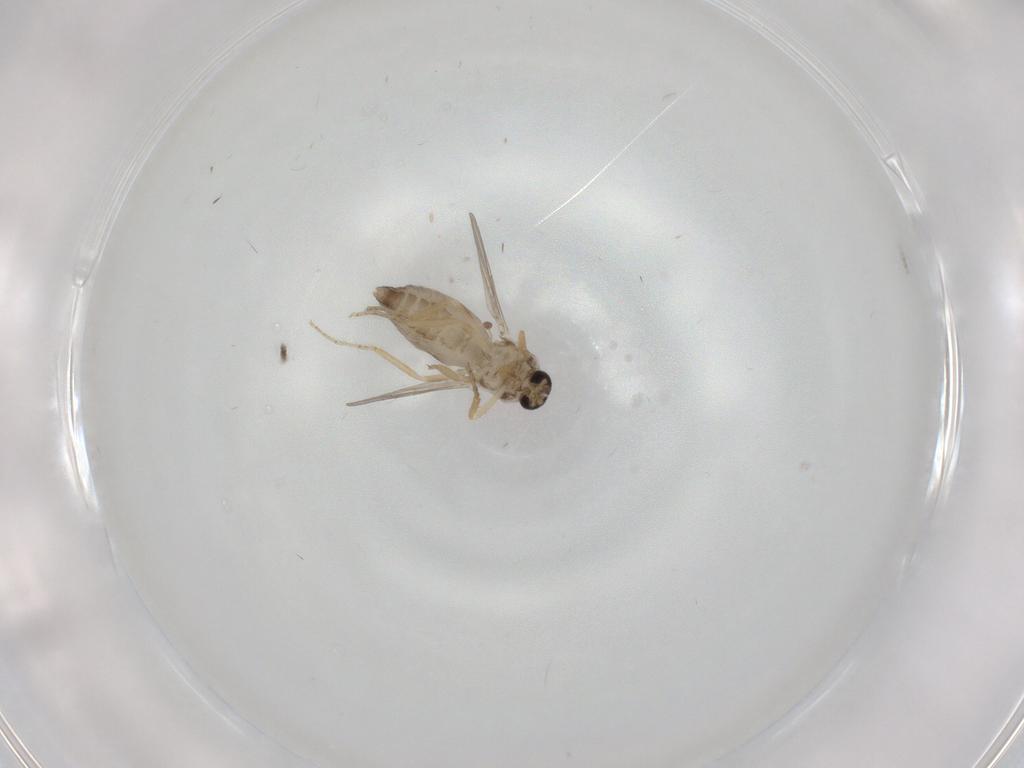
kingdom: Animalia
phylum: Arthropoda
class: Insecta
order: Diptera
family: Ceratopogonidae
